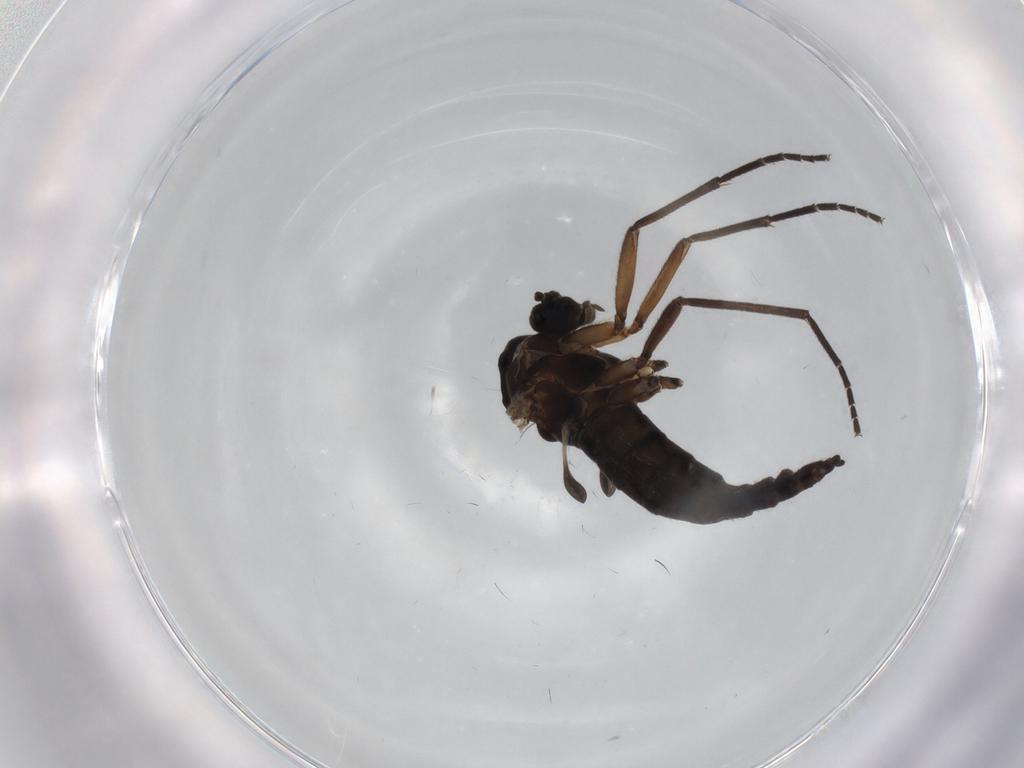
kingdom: Animalia
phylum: Arthropoda
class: Insecta
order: Diptera
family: Sciaridae
